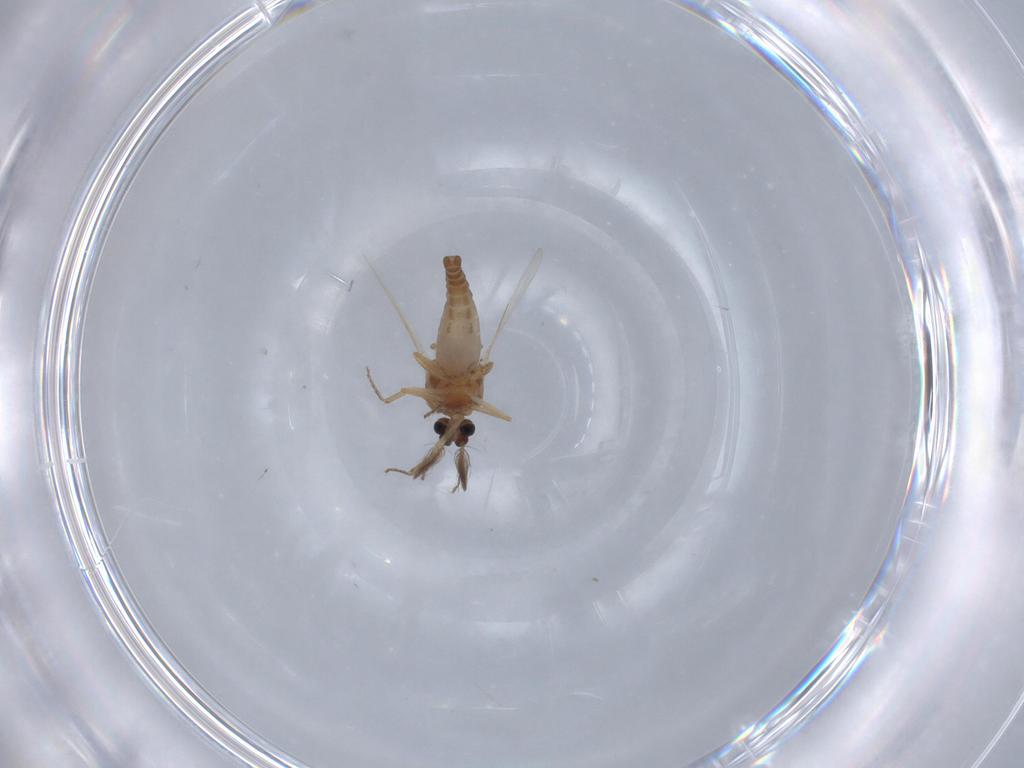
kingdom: Animalia
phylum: Arthropoda
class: Insecta
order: Diptera
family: Ceratopogonidae
